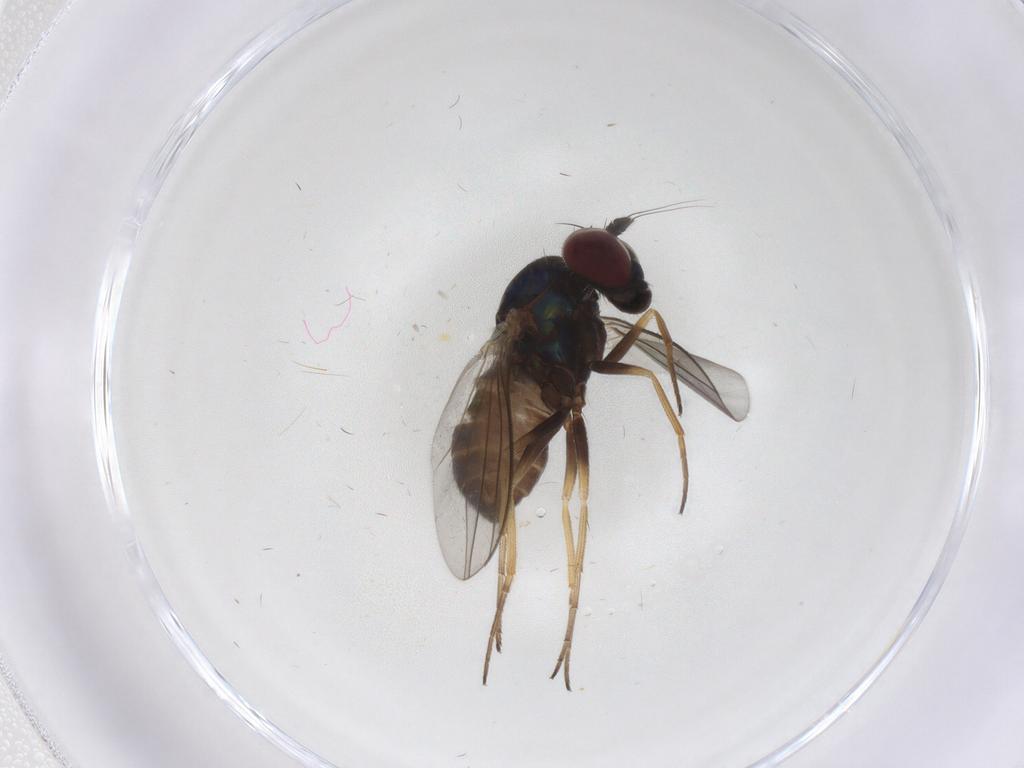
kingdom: Animalia
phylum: Arthropoda
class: Insecta
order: Diptera
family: Dolichopodidae
